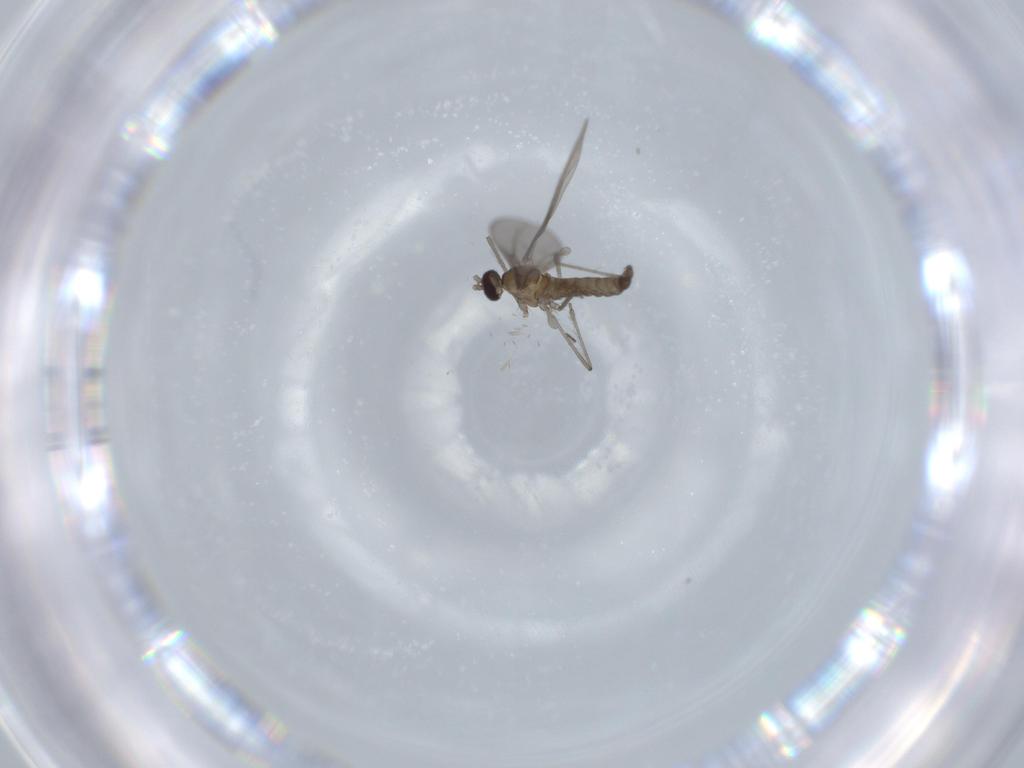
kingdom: Animalia
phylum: Arthropoda
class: Insecta
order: Diptera
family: Cecidomyiidae
